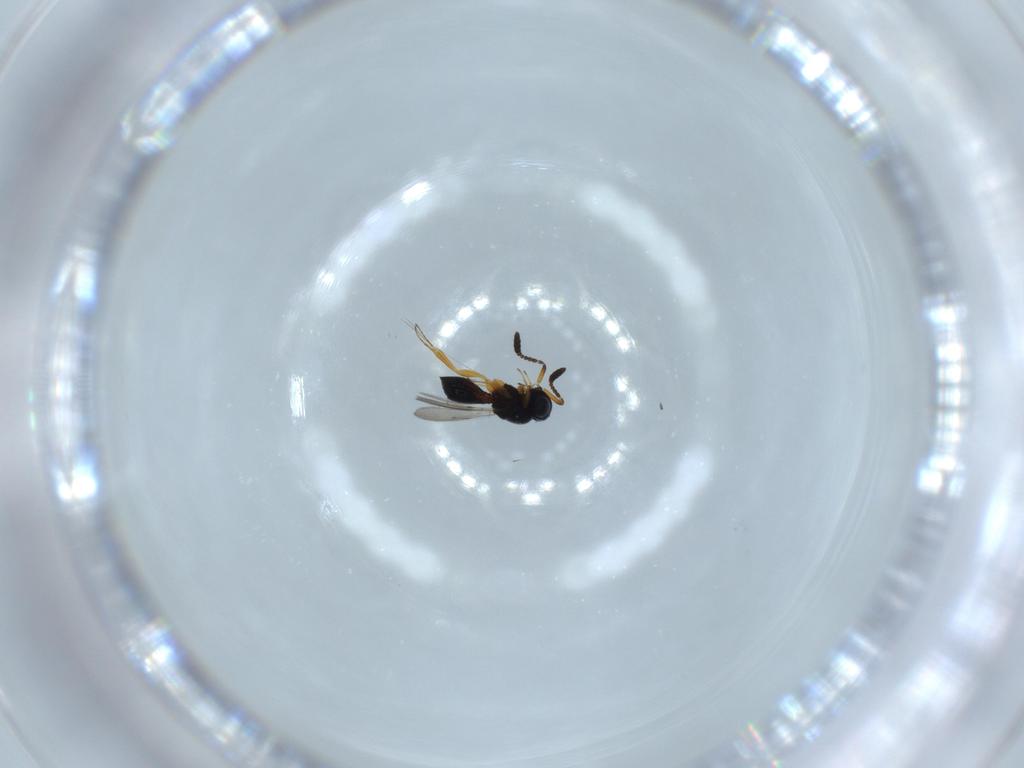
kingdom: Animalia
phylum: Arthropoda
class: Insecta
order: Hymenoptera
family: Scelionidae
